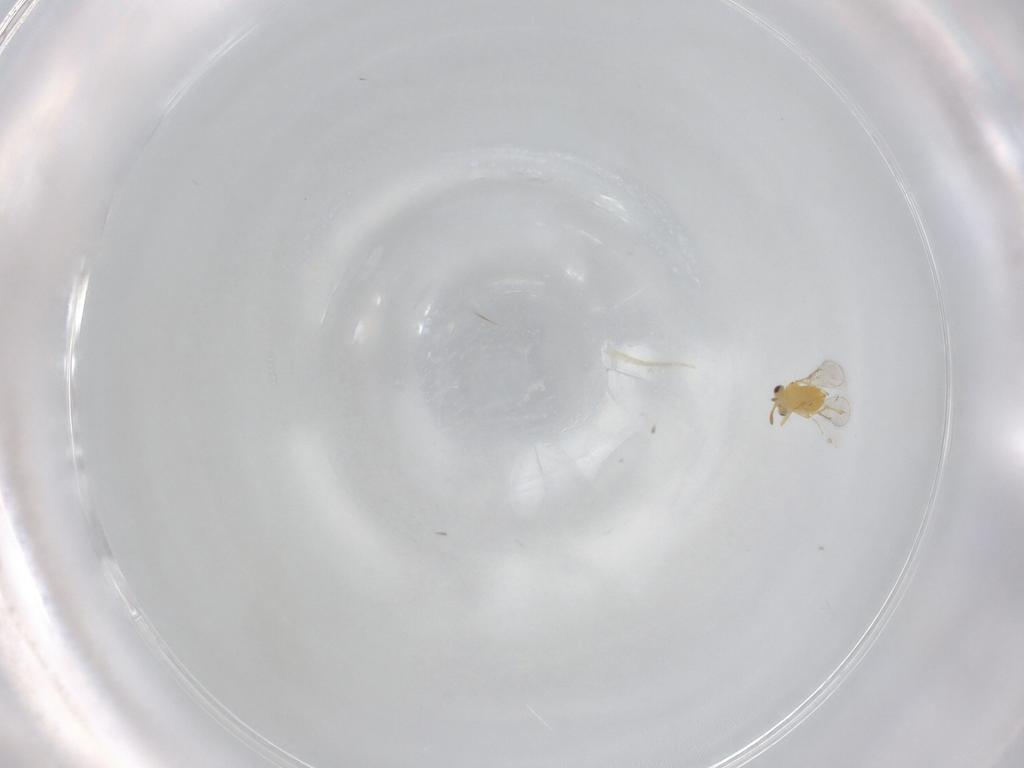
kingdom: Animalia
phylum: Arthropoda
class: Insecta
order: Hymenoptera
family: Aphelinidae
